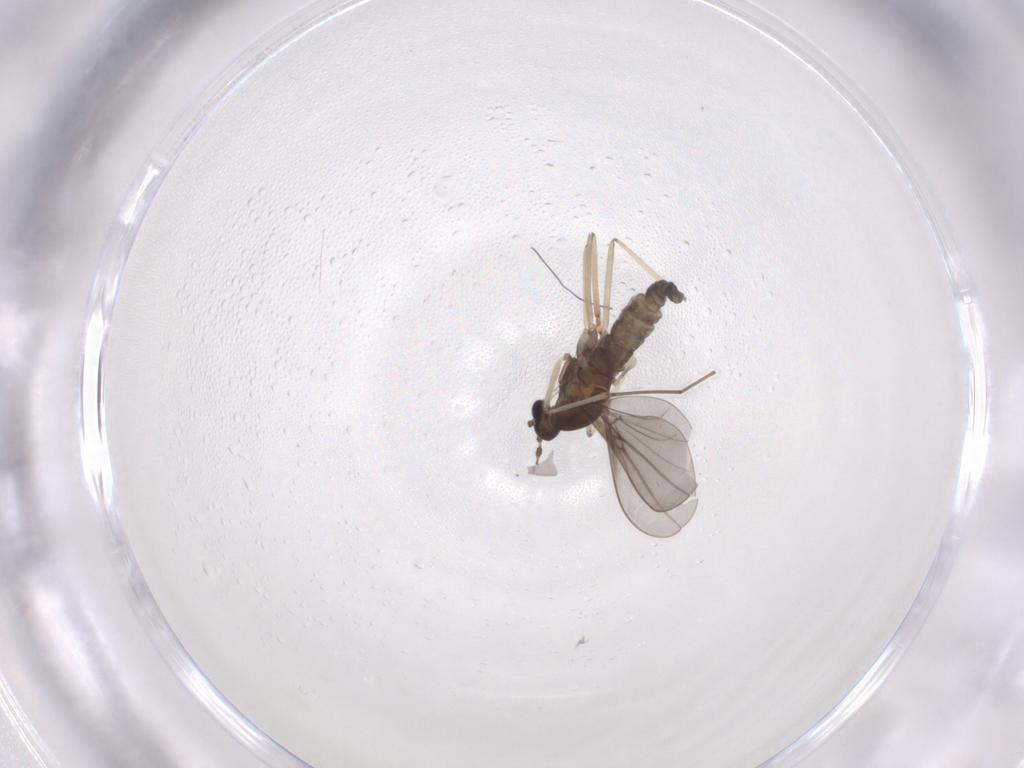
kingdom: Animalia
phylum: Arthropoda
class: Insecta
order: Diptera
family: Cecidomyiidae
